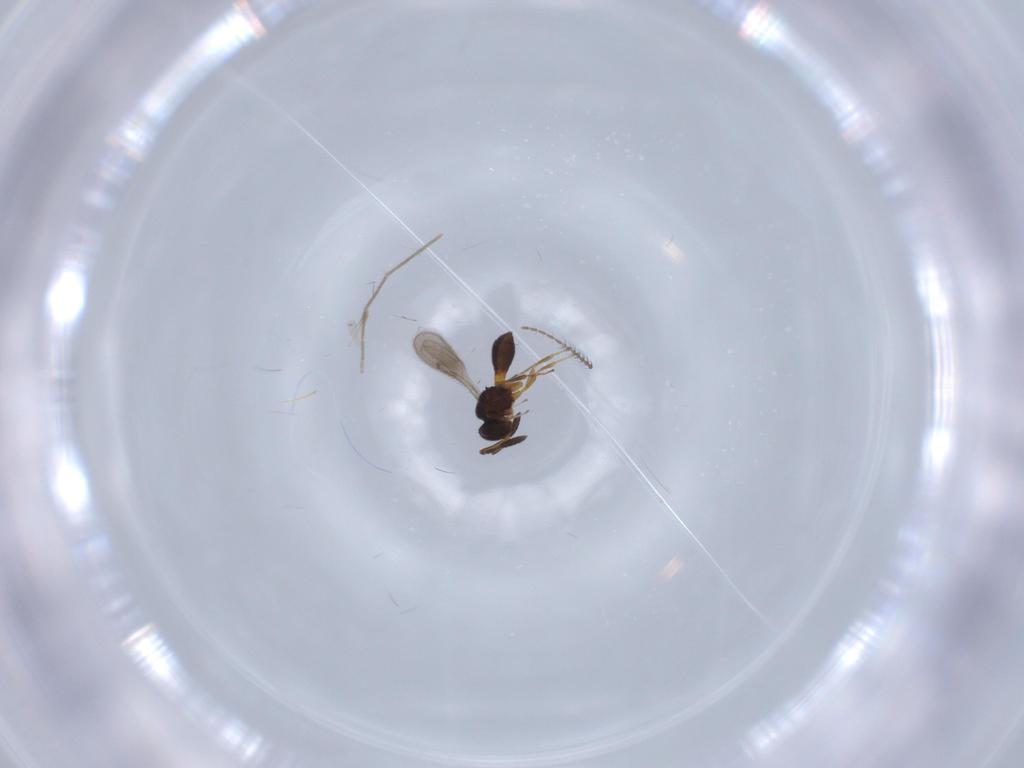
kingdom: Animalia
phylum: Arthropoda
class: Insecta
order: Hymenoptera
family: Scelionidae
